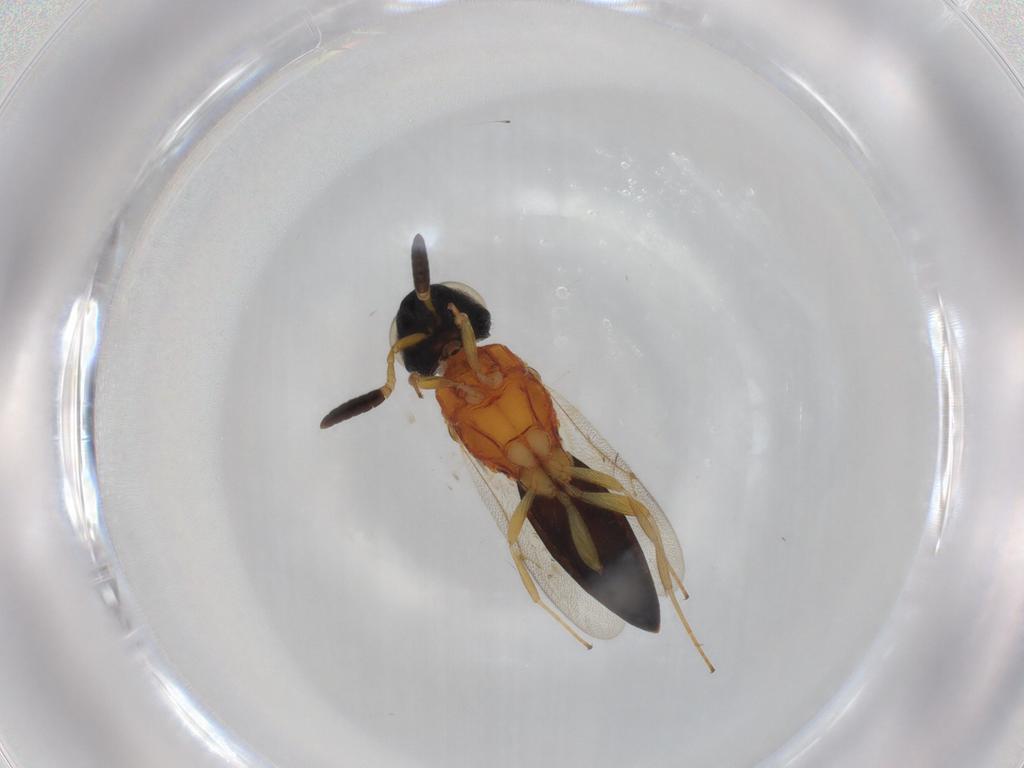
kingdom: Animalia
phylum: Arthropoda
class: Insecta
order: Hymenoptera
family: Scelionidae
